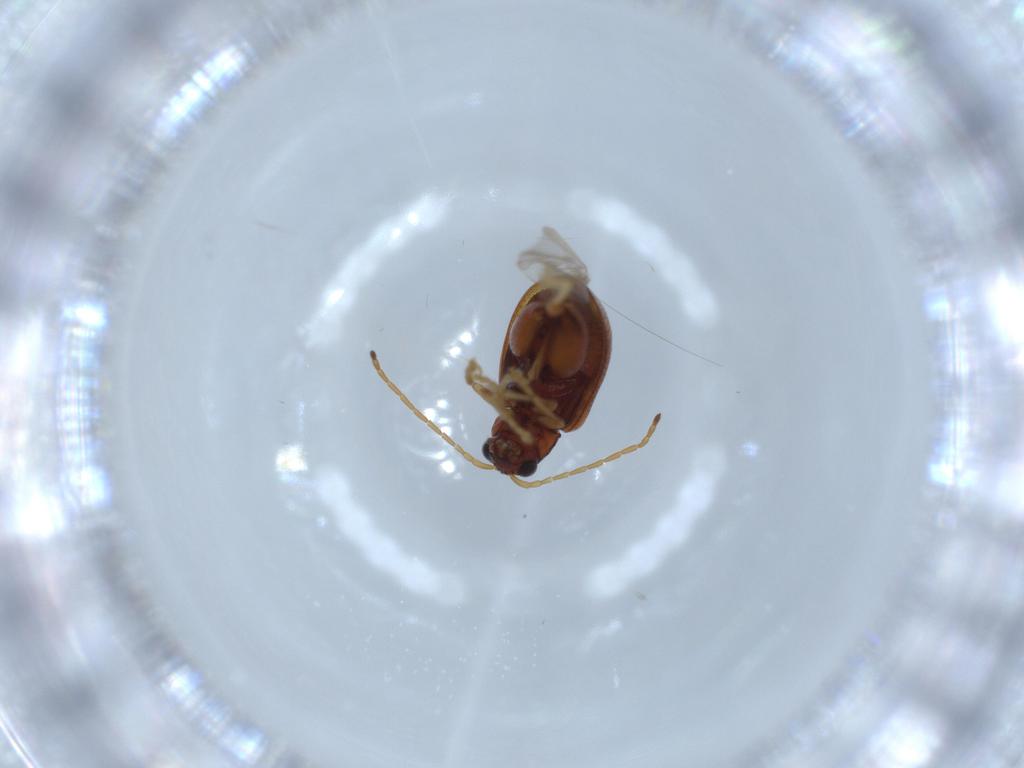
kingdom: Animalia
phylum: Arthropoda
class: Insecta
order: Coleoptera
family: Chrysomelidae
